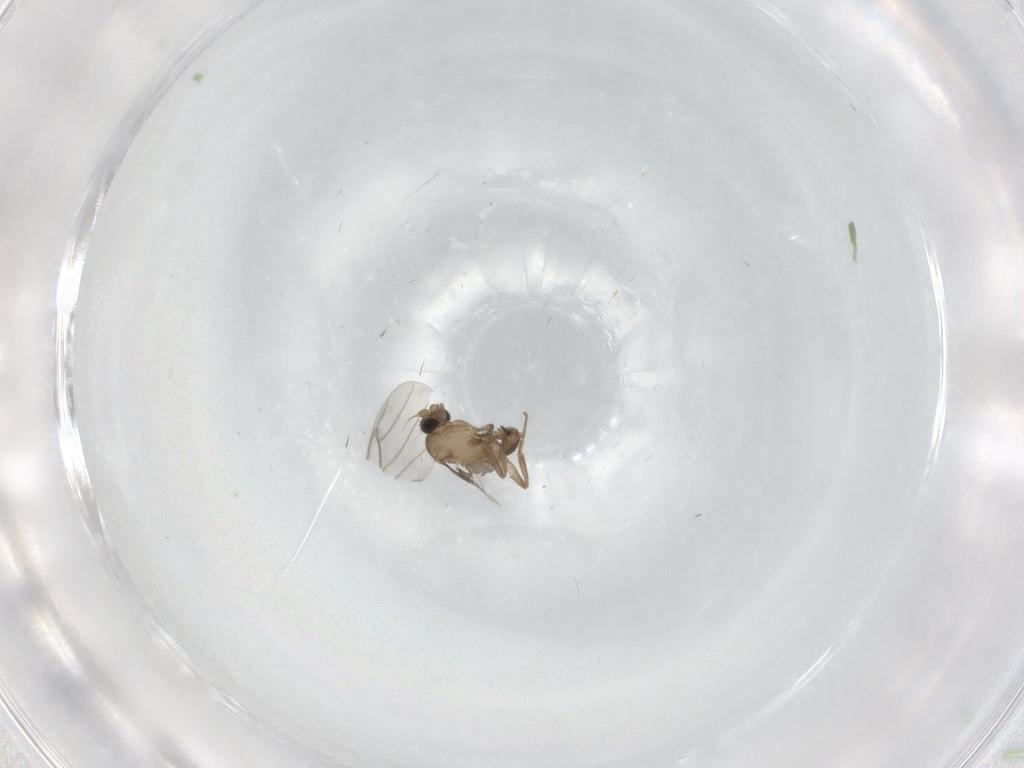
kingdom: Animalia
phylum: Arthropoda
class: Insecta
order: Diptera
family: Phoridae
